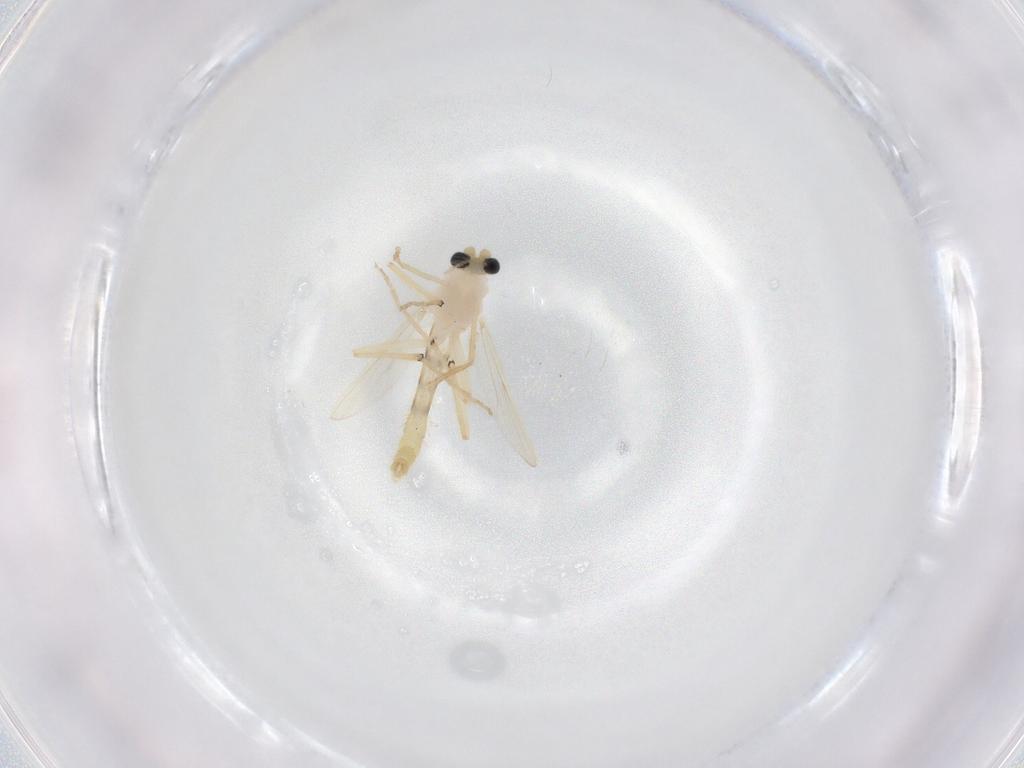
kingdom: Animalia
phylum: Arthropoda
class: Insecta
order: Diptera
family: Chironomidae
